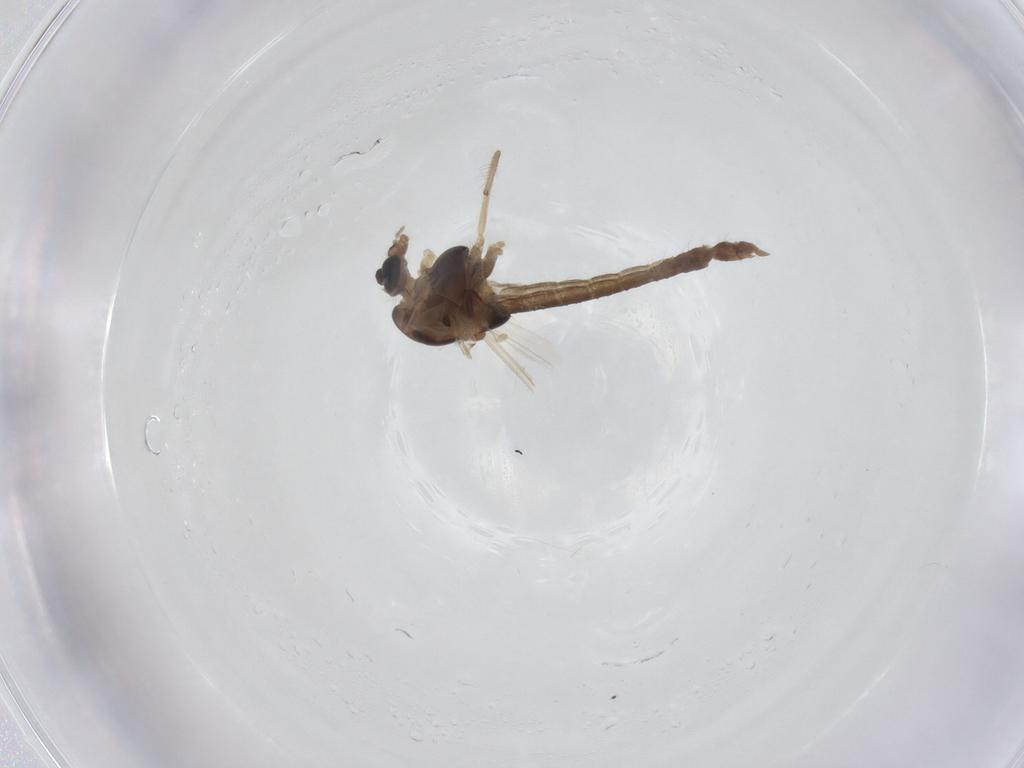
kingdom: Animalia
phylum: Arthropoda
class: Insecta
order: Diptera
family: Chironomidae
